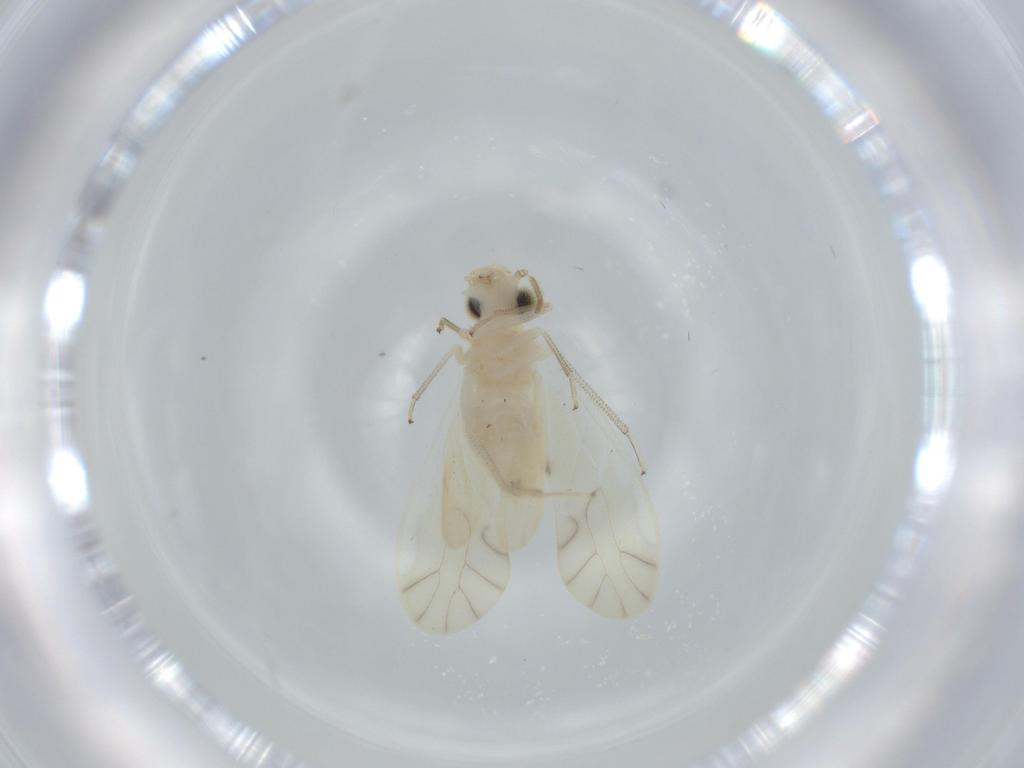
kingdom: Animalia
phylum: Arthropoda
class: Insecta
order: Psocodea
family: Caeciliusidae
